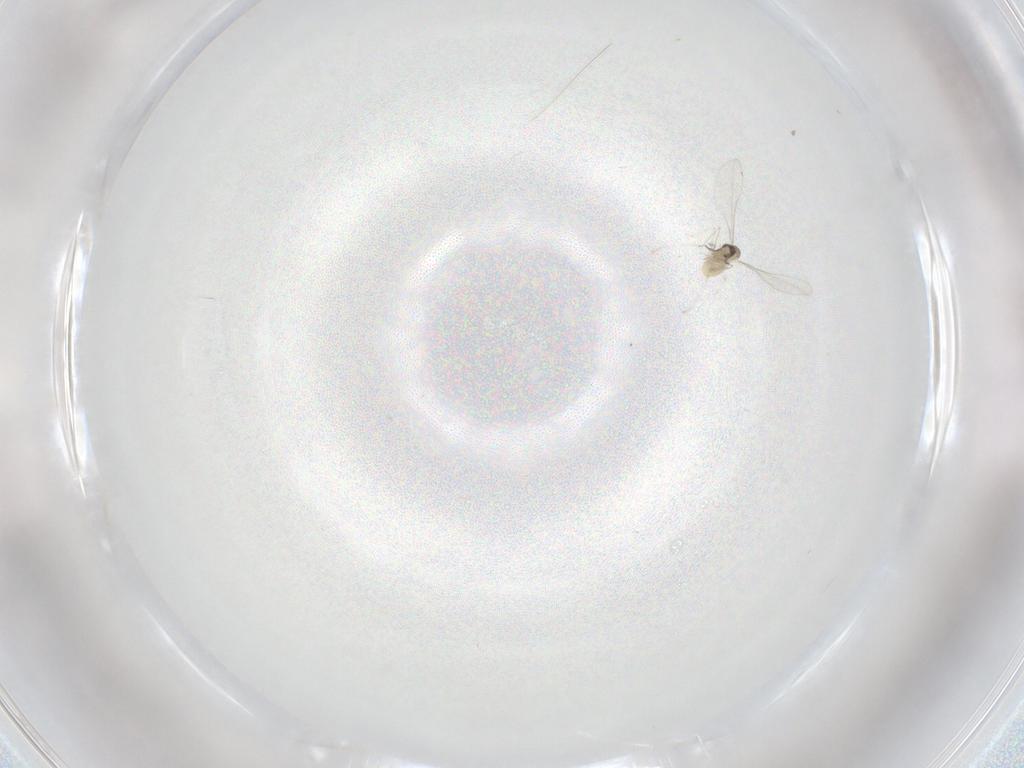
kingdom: Animalia
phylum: Arthropoda
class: Insecta
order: Diptera
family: Cecidomyiidae
